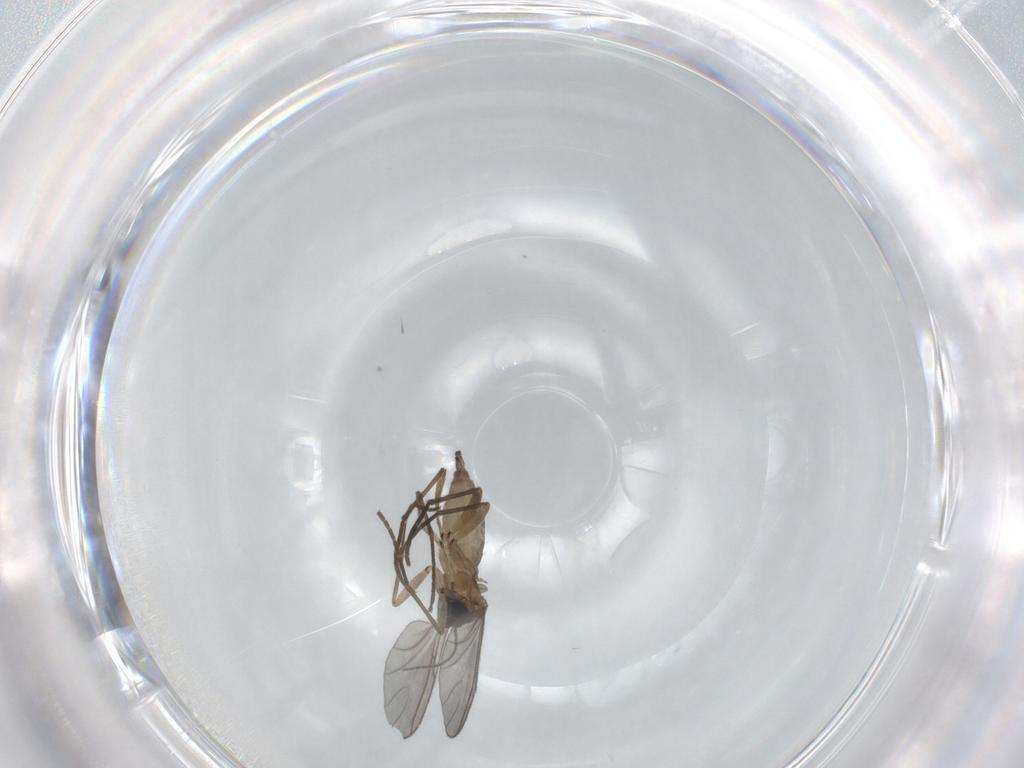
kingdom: Animalia
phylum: Arthropoda
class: Insecta
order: Diptera
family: Sciaridae
